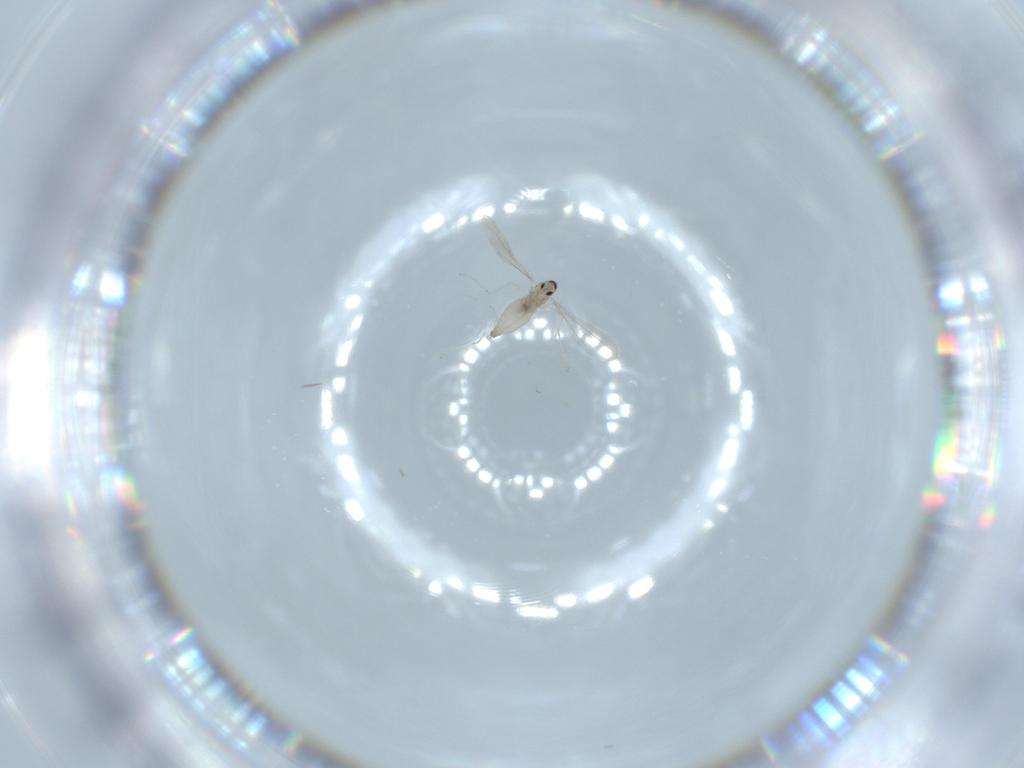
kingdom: Animalia
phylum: Arthropoda
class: Insecta
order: Diptera
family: Cecidomyiidae
